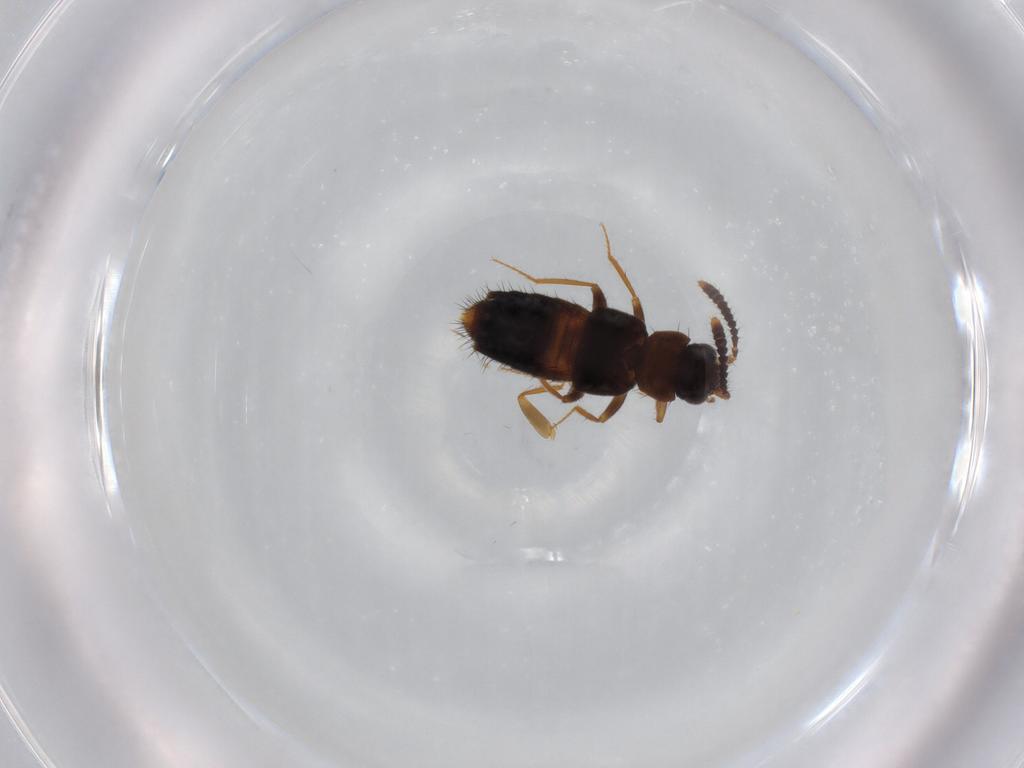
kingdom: Animalia
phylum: Arthropoda
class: Insecta
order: Coleoptera
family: Staphylinidae
